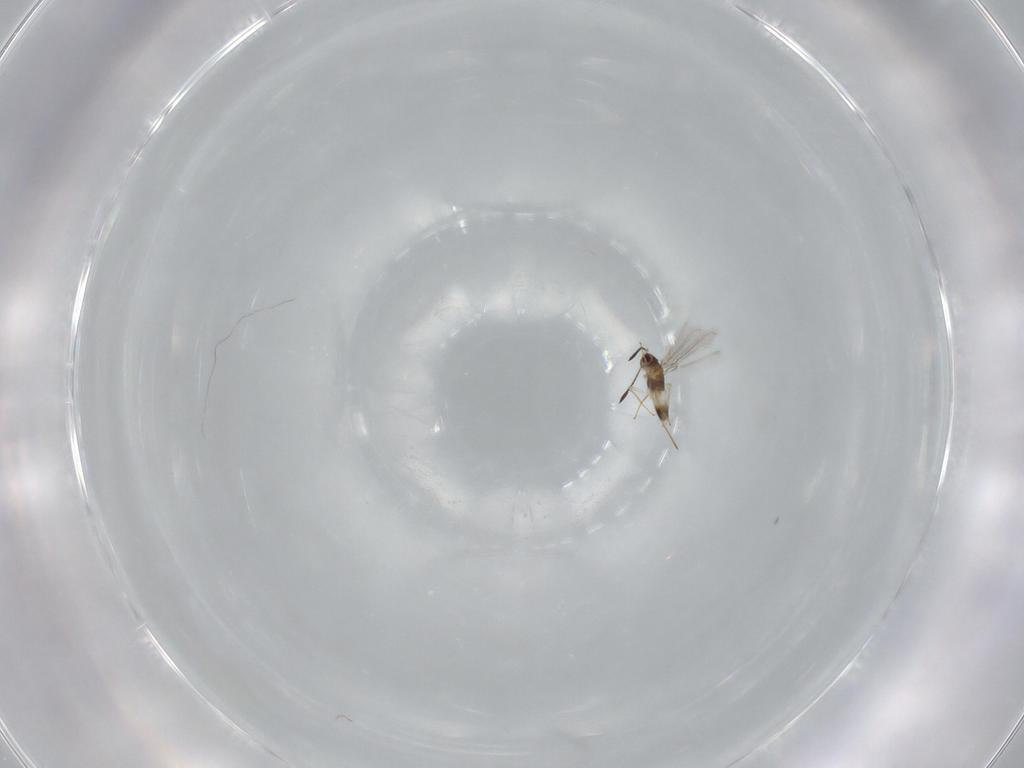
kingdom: Animalia
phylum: Arthropoda
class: Insecta
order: Hymenoptera
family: Mymaridae
